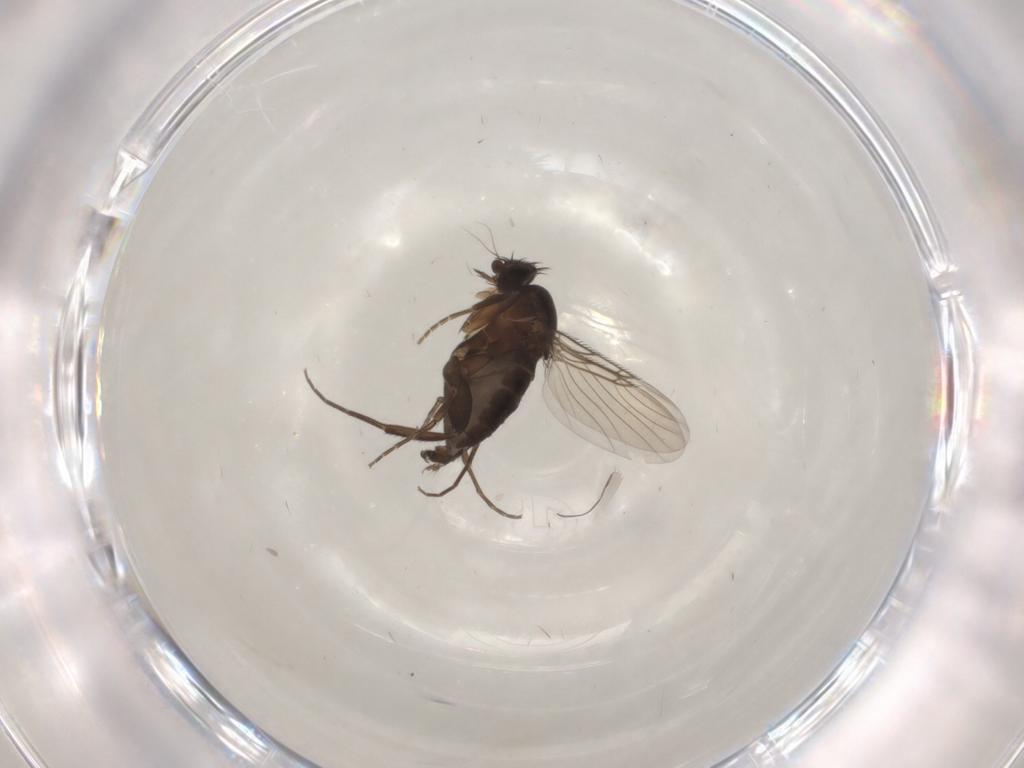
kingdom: Animalia
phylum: Arthropoda
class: Insecta
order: Diptera
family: Phoridae
